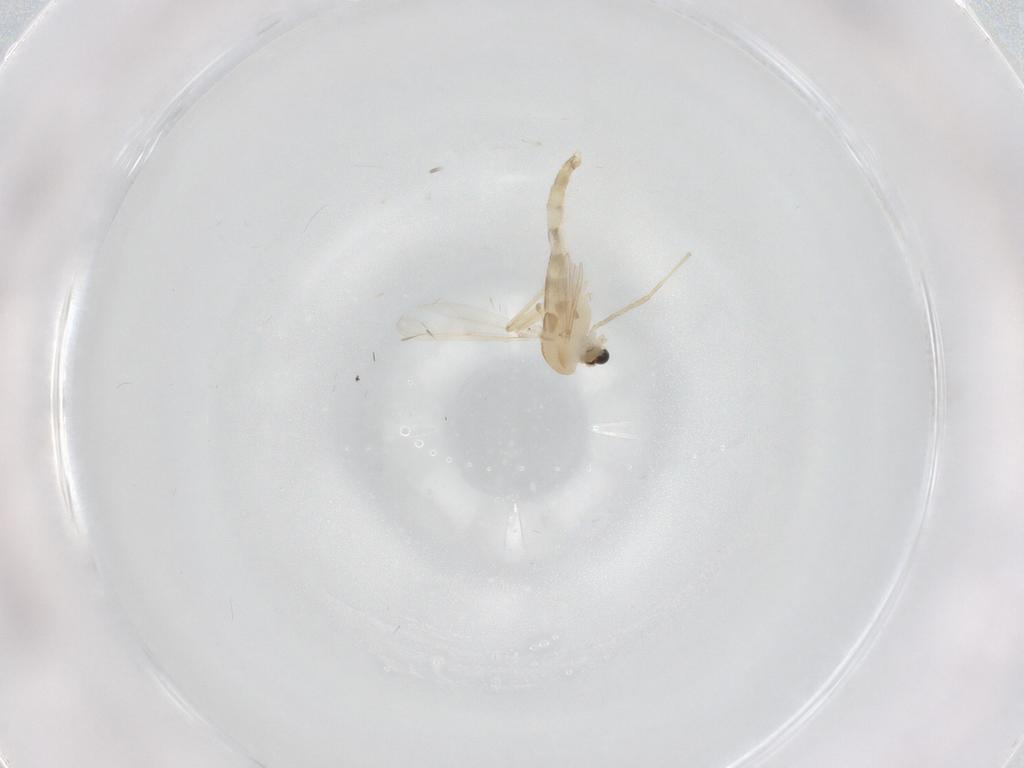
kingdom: Animalia
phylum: Arthropoda
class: Insecta
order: Diptera
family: Chironomidae
